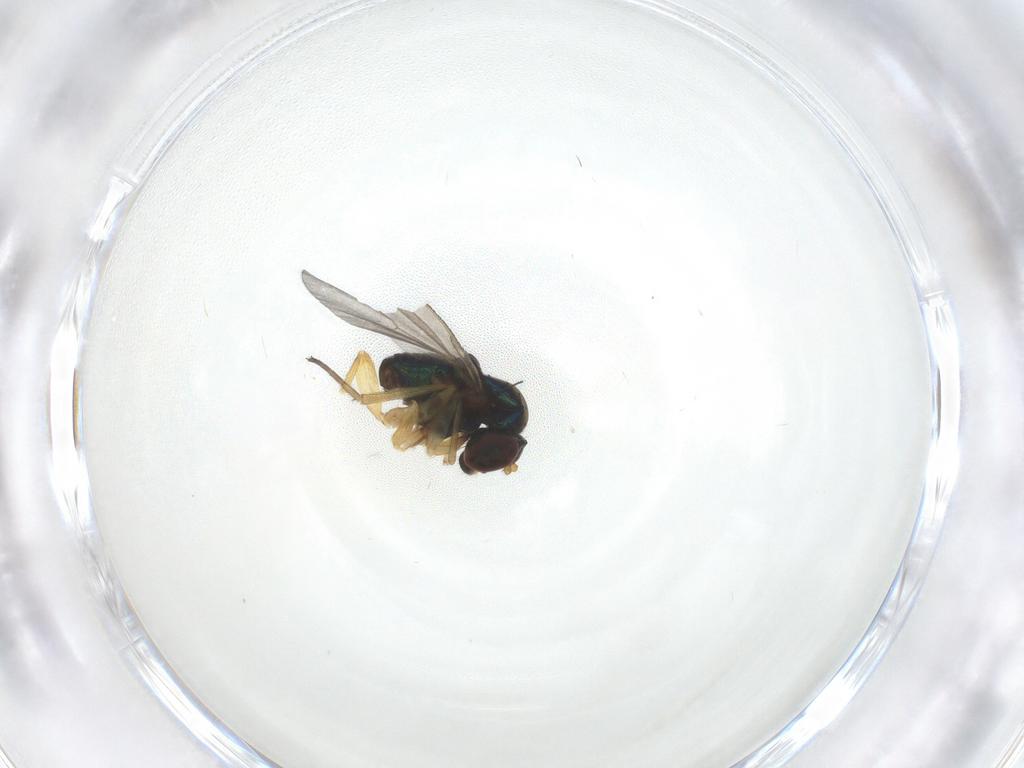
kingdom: Animalia
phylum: Arthropoda
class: Insecta
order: Diptera
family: Dolichopodidae
